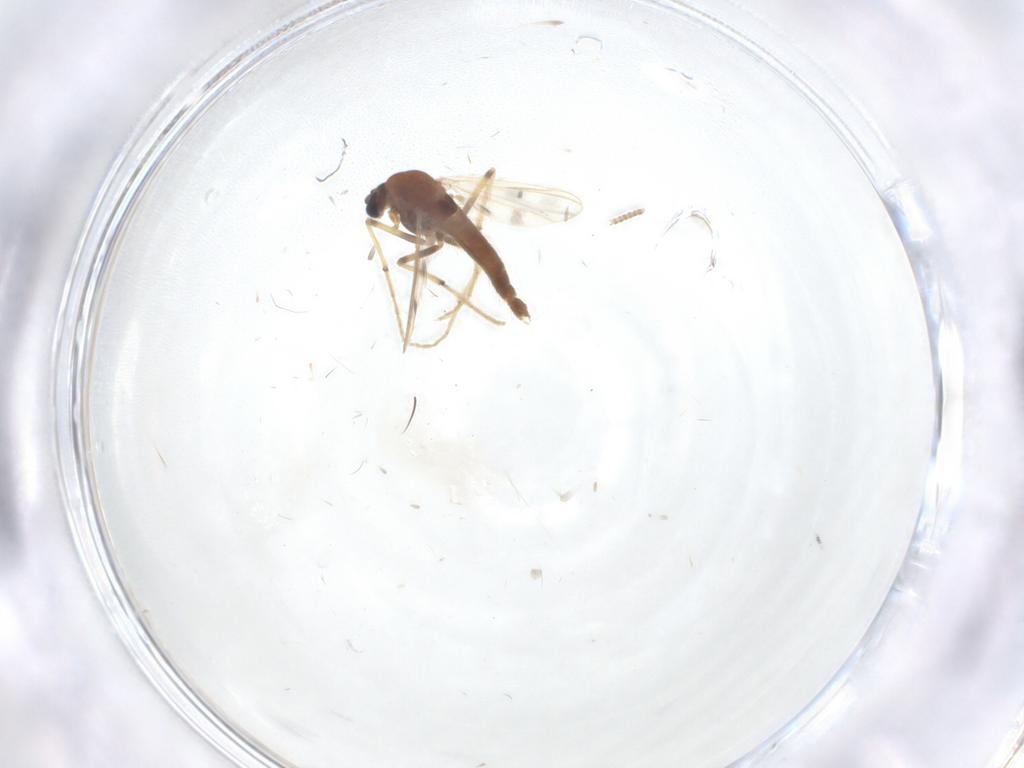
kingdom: Animalia
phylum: Arthropoda
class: Insecta
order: Diptera
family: Chironomidae
